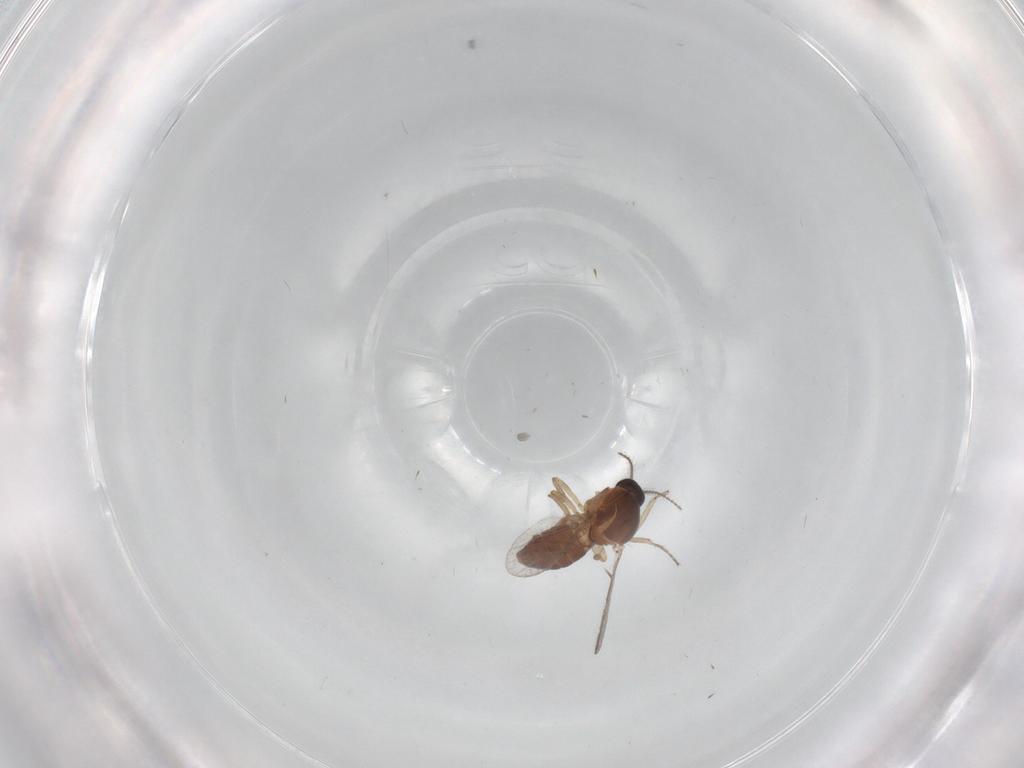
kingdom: Animalia
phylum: Arthropoda
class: Insecta
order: Diptera
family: Ceratopogonidae
